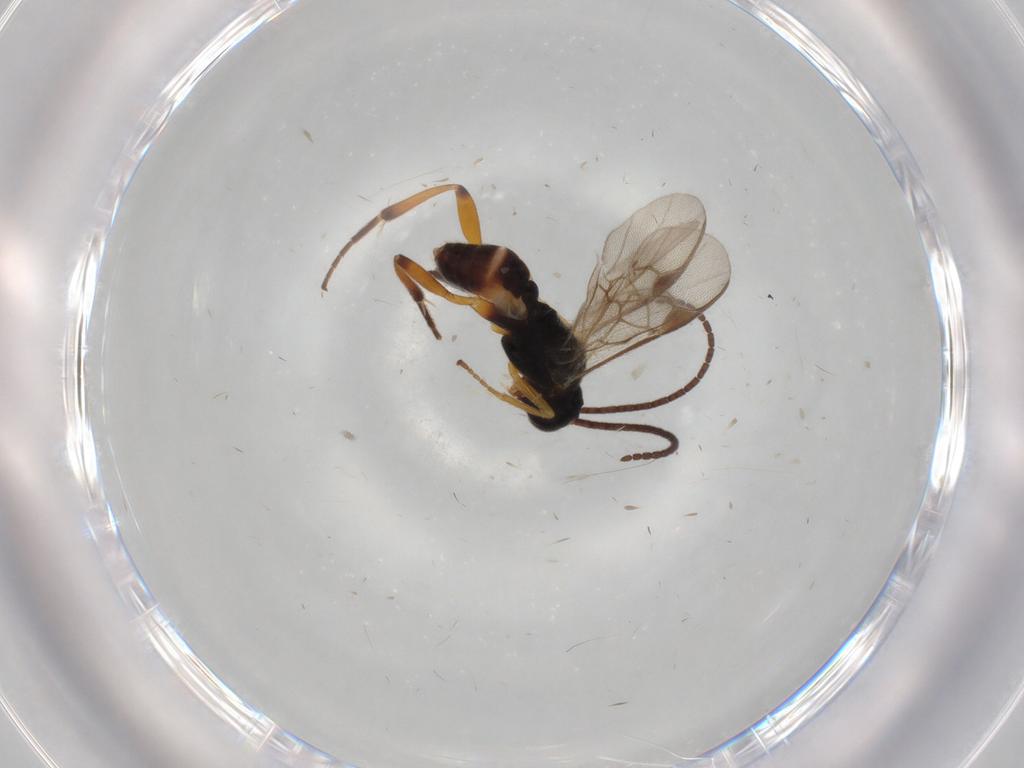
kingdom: Animalia
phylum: Arthropoda
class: Insecta
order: Hymenoptera
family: Braconidae
